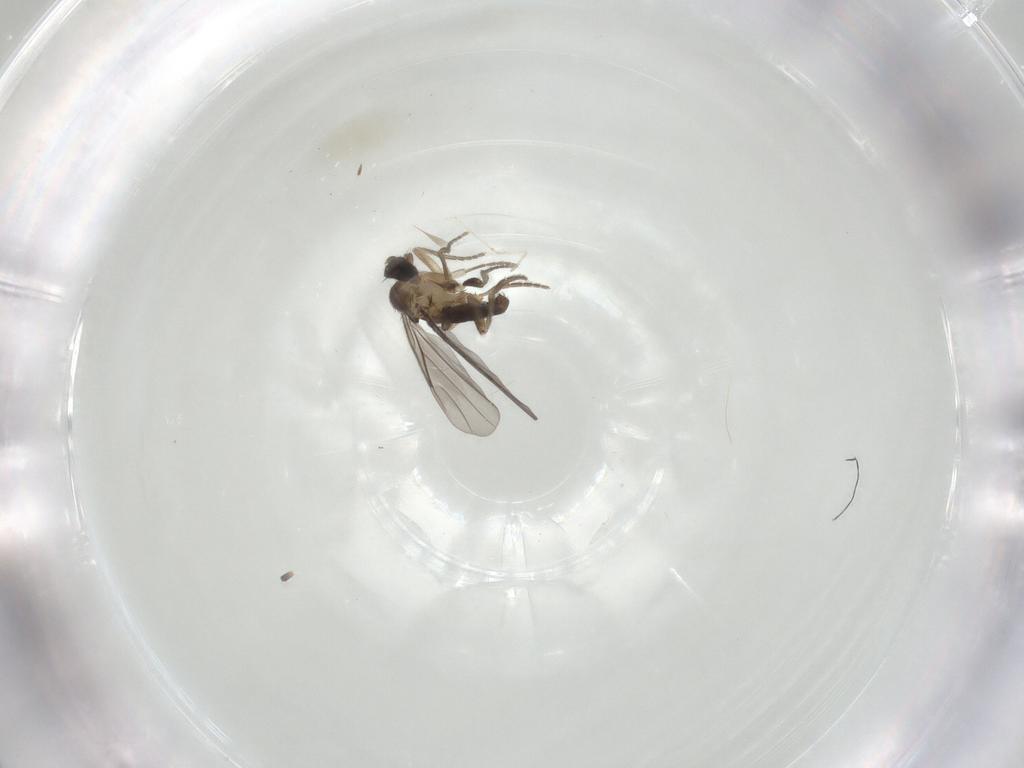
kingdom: Animalia
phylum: Arthropoda
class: Insecta
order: Diptera
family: Phoridae
